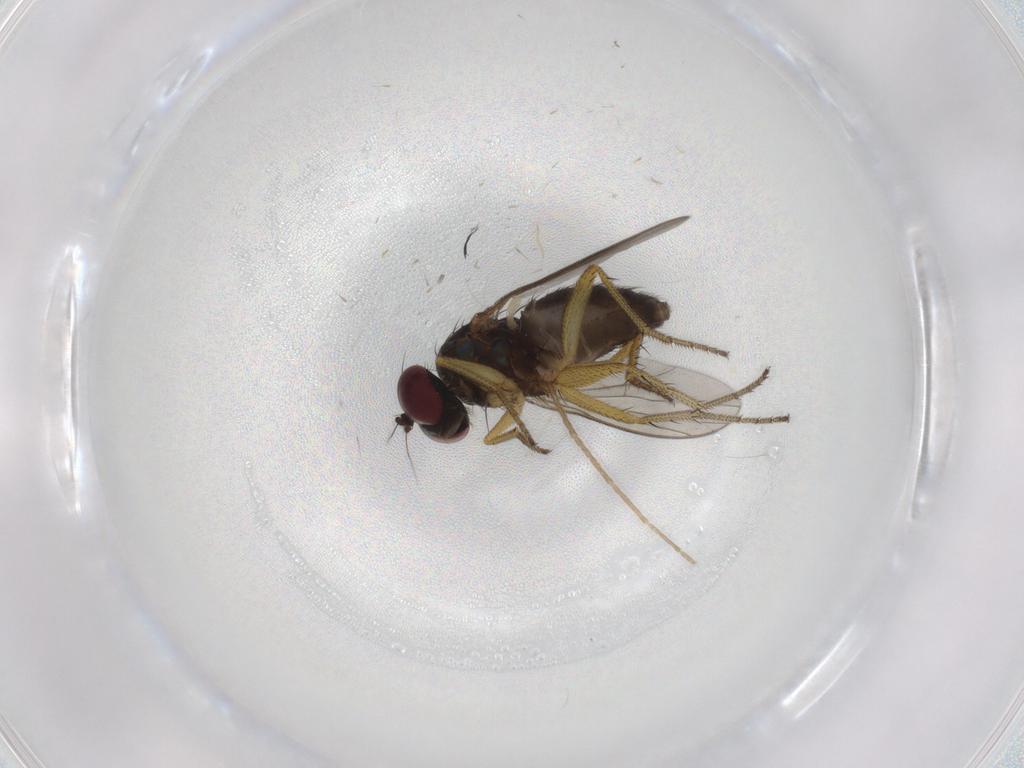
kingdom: Animalia
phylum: Arthropoda
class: Insecta
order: Diptera
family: Dolichopodidae
